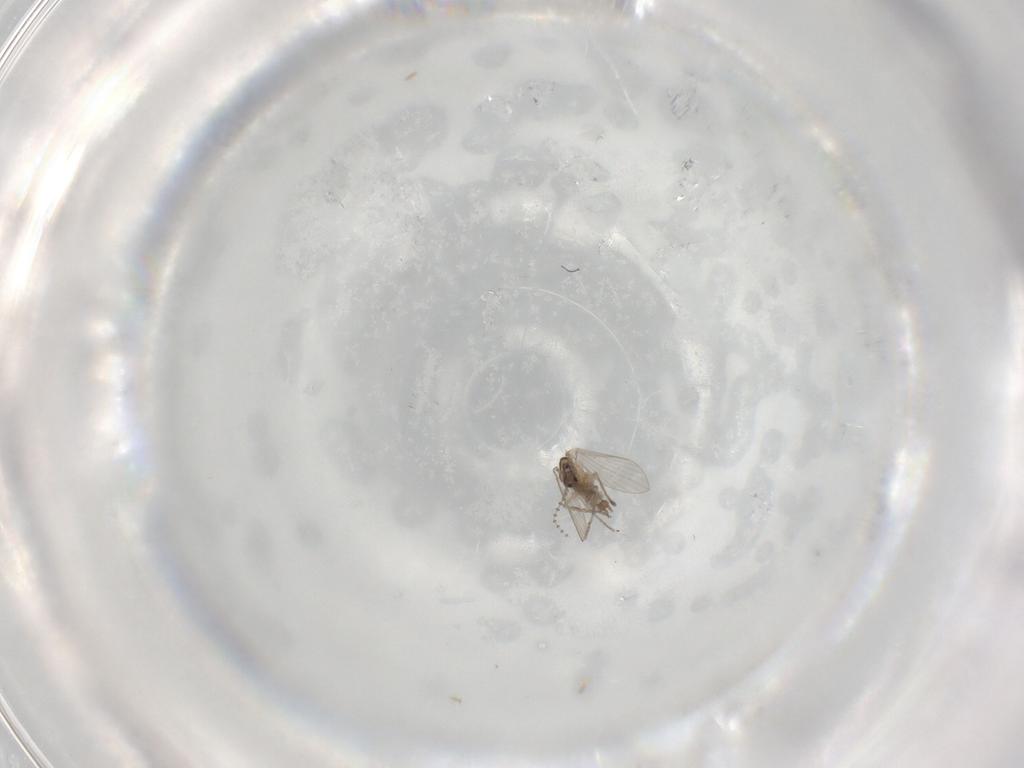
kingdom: Animalia
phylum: Arthropoda
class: Insecta
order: Diptera
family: Psychodidae
